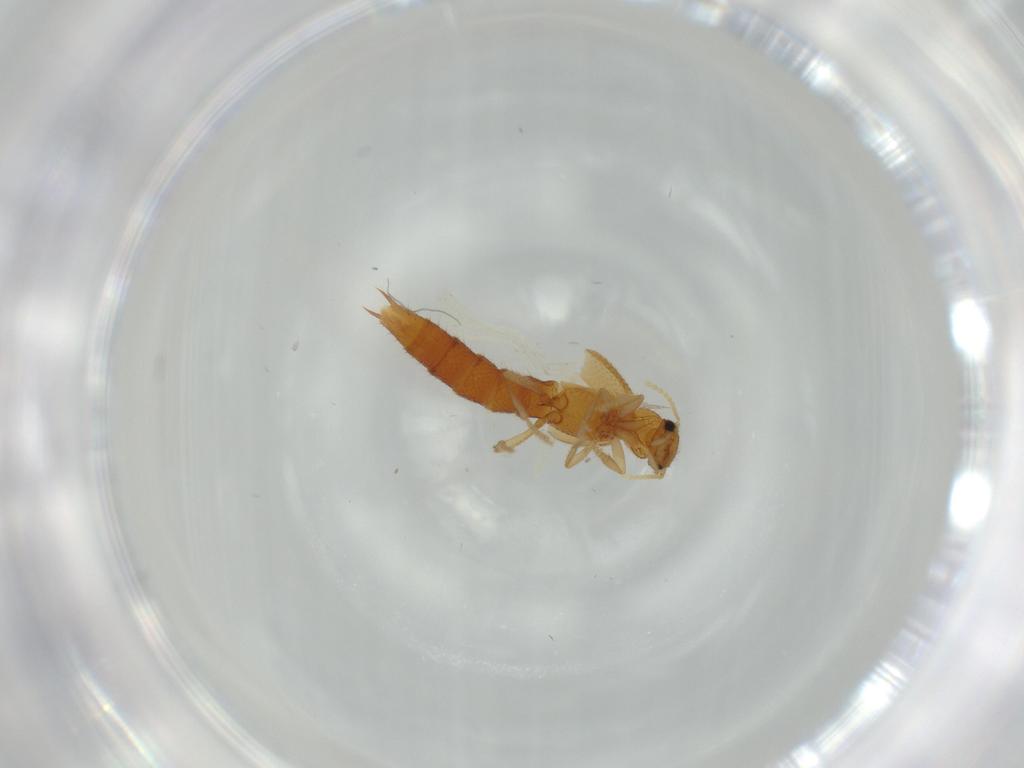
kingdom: Animalia
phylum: Arthropoda
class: Insecta
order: Coleoptera
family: Staphylinidae
